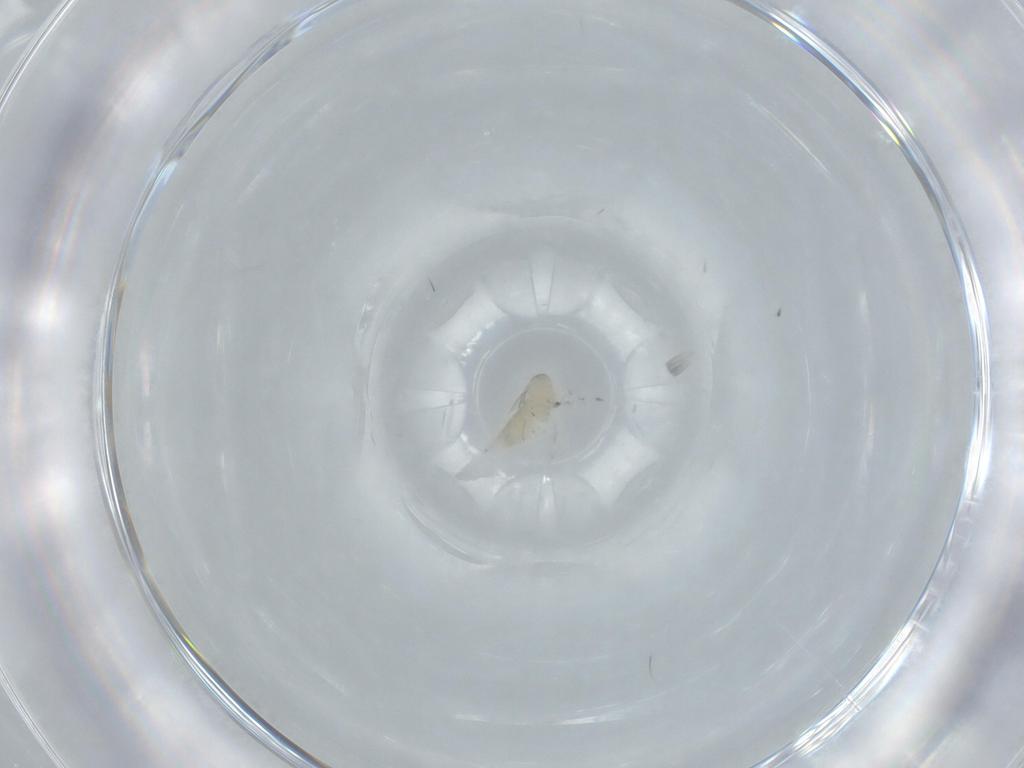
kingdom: Animalia
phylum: Arthropoda
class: Insecta
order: Diptera
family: Cecidomyiidae
